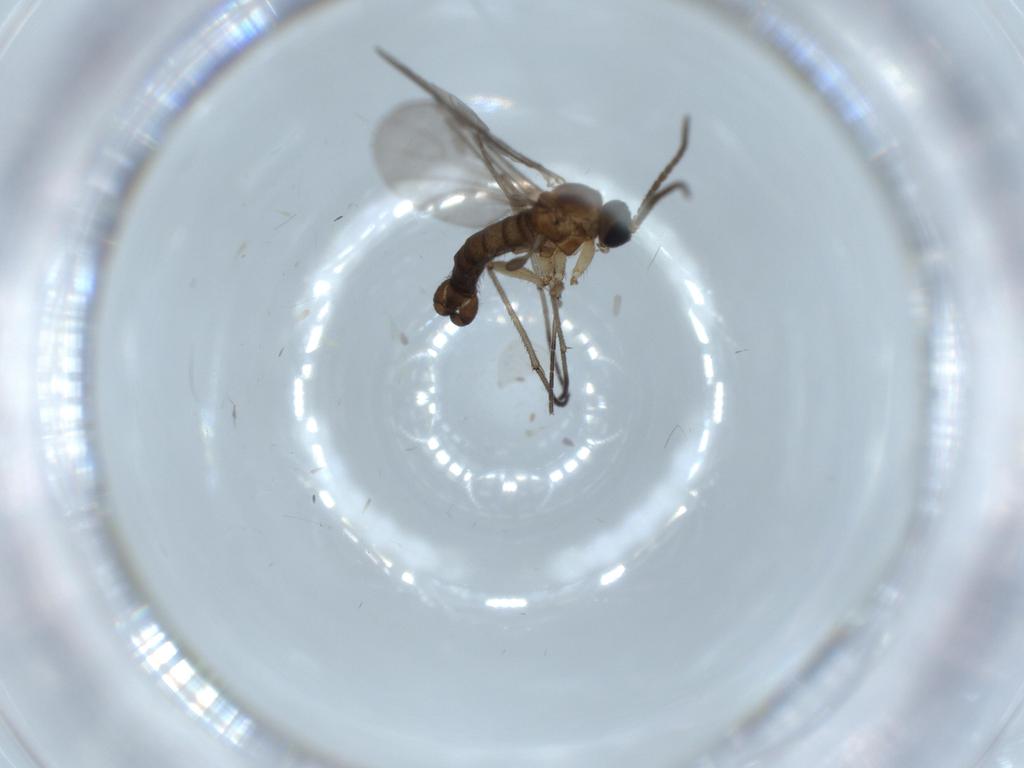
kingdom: Animalia
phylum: Arthropoda
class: Insecta
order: Diptera
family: Sciaridae
